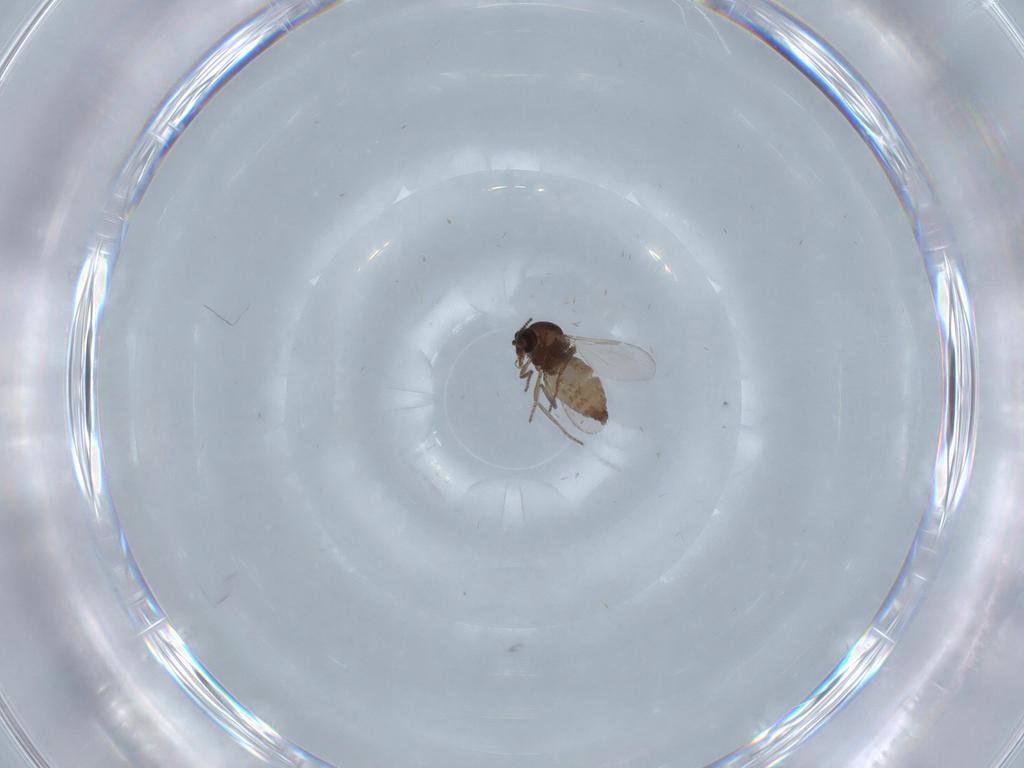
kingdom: Animalia
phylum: Arthropoda
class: Insecta
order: Diptera
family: Ceratopogonidae
